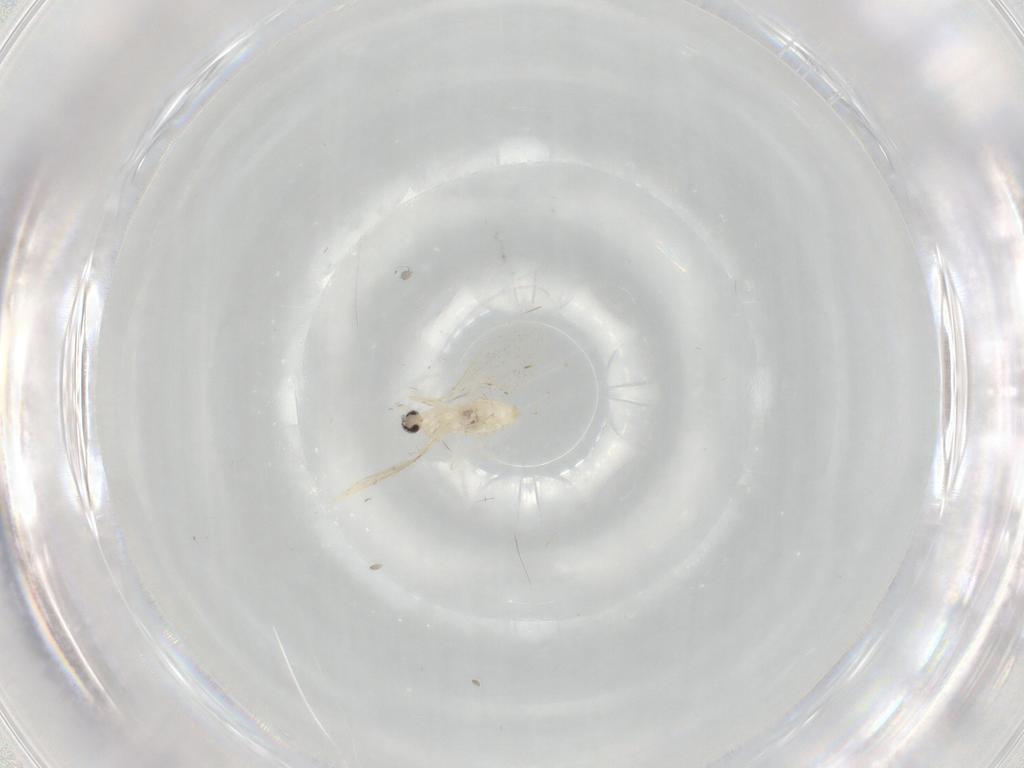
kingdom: Animalia
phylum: Arthropoda
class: Insecta
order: Diptera
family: Cecidomyiidae
